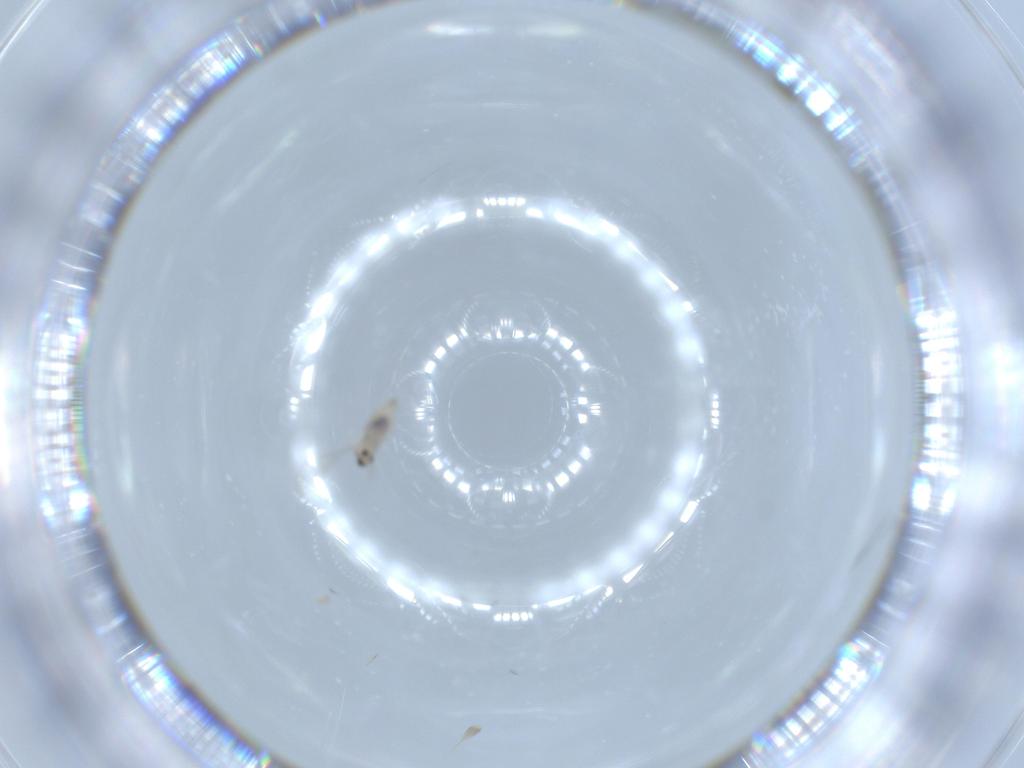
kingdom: Animalia
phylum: Arthropoda
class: Insecta
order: Diptera
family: Cecidomyiidae
